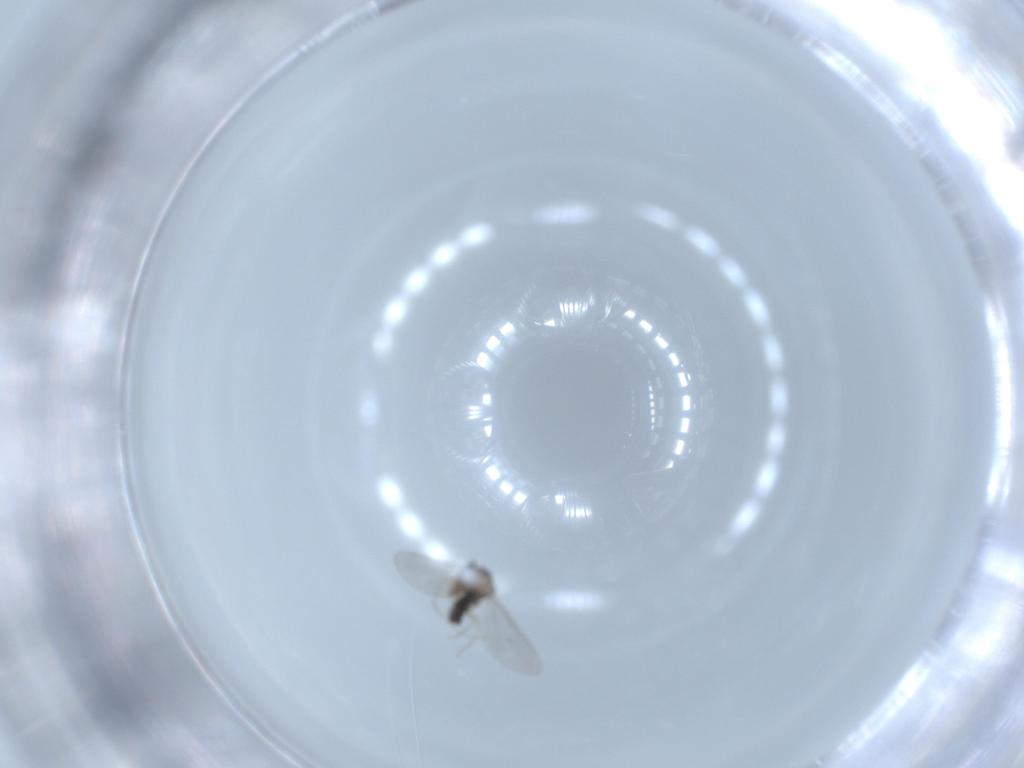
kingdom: Animalia
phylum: Arthropoda
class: Insecta
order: Diptera
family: Cecidomyiidae
